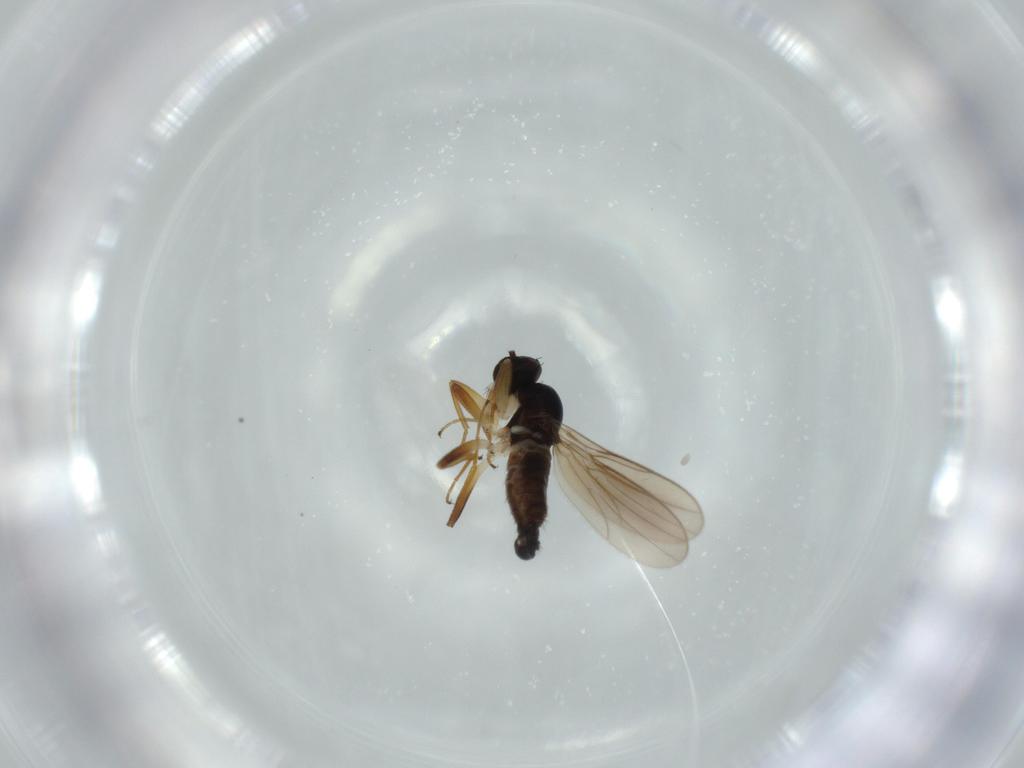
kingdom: Animalia
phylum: Arthropoda
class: Insecta
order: Diptera
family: Hybotidae
